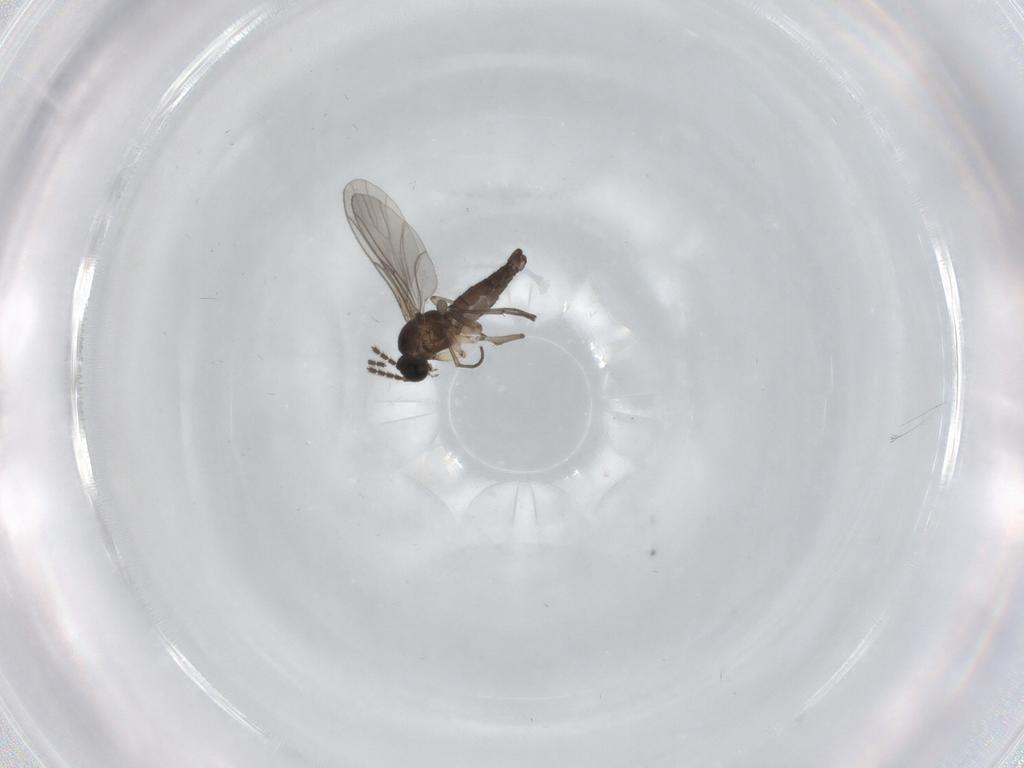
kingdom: Animalia
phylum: Arthropoda
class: Insecta
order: Diptera
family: Sciaridae
